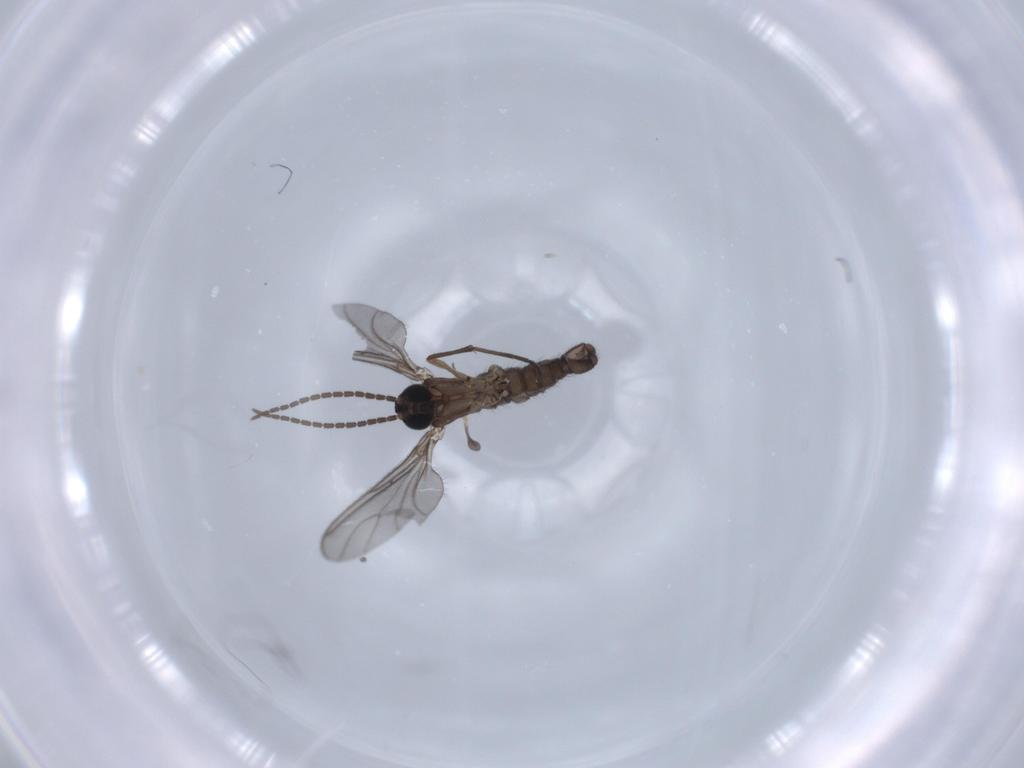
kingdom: Animalia
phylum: Arthropoda
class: Insecta
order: Diptera
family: Sciaridae
